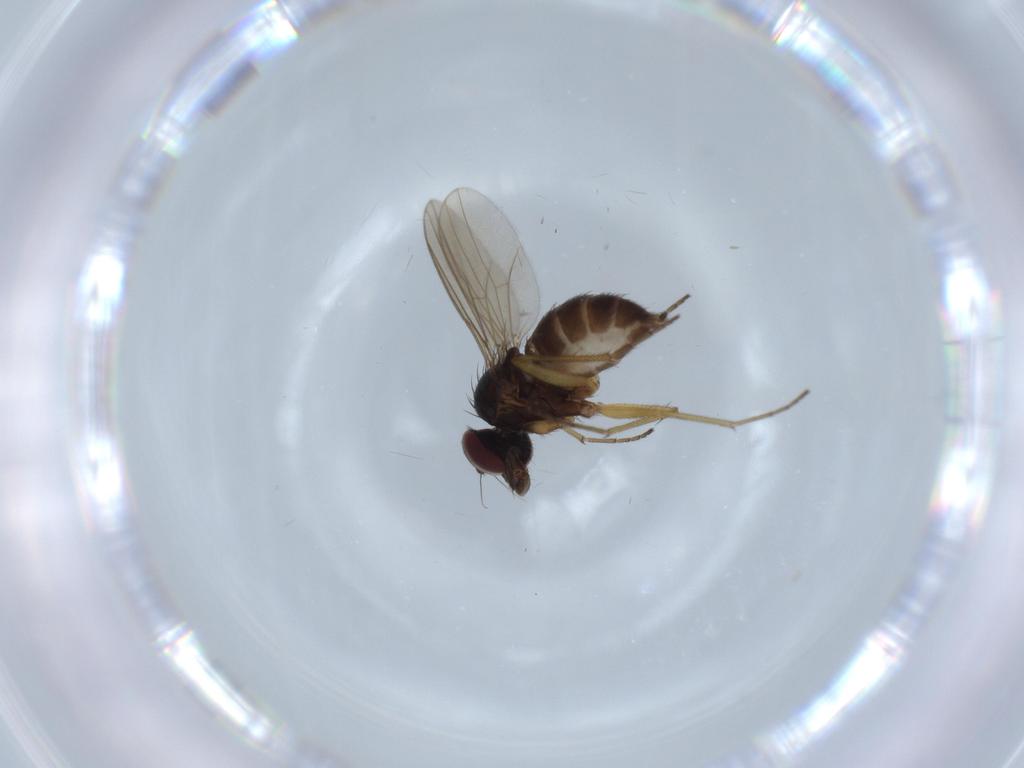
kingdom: Animalia
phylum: Arthropoda
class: Insecta
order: Diptera
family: Dolichopodidae
